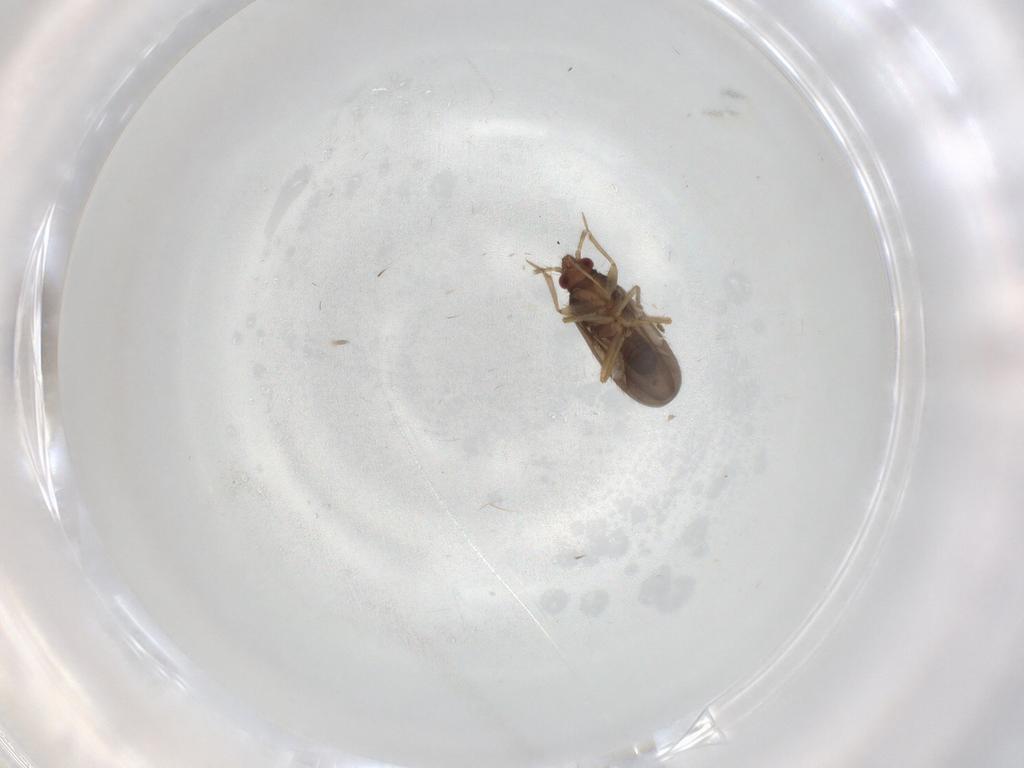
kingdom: Animalia
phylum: Arthropoda
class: Insecta
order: Hemiptera
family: Ceratocombidae
